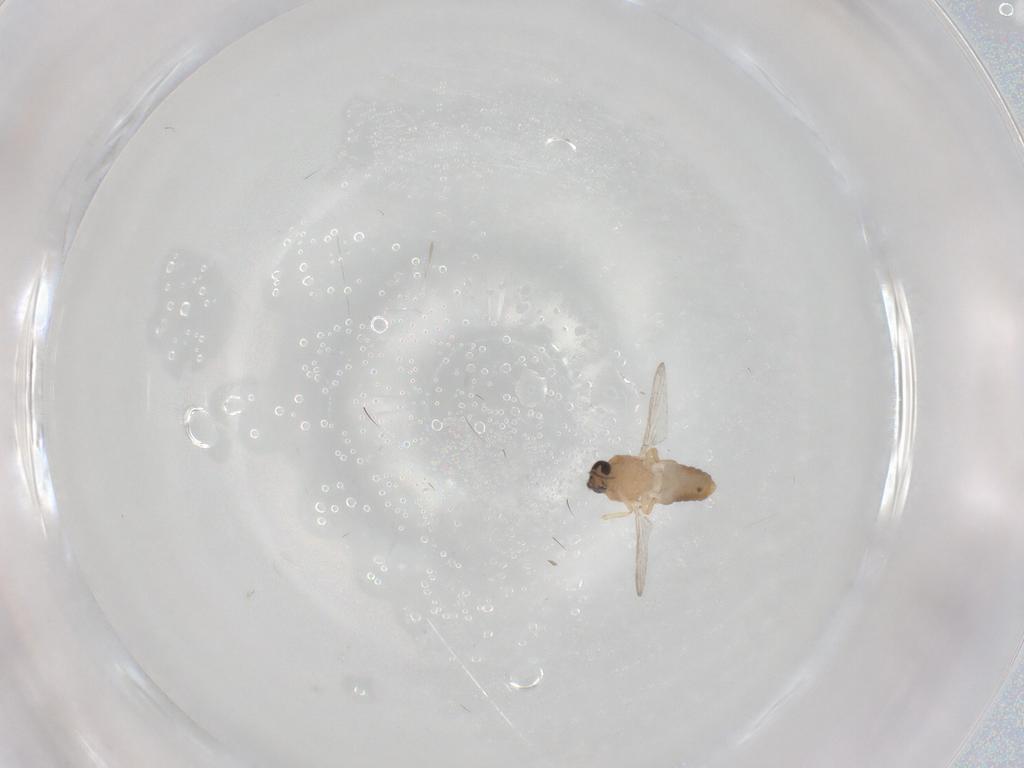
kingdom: Animalia
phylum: Arthropoda
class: Insecta
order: Diptera
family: Ceratopogonidae
